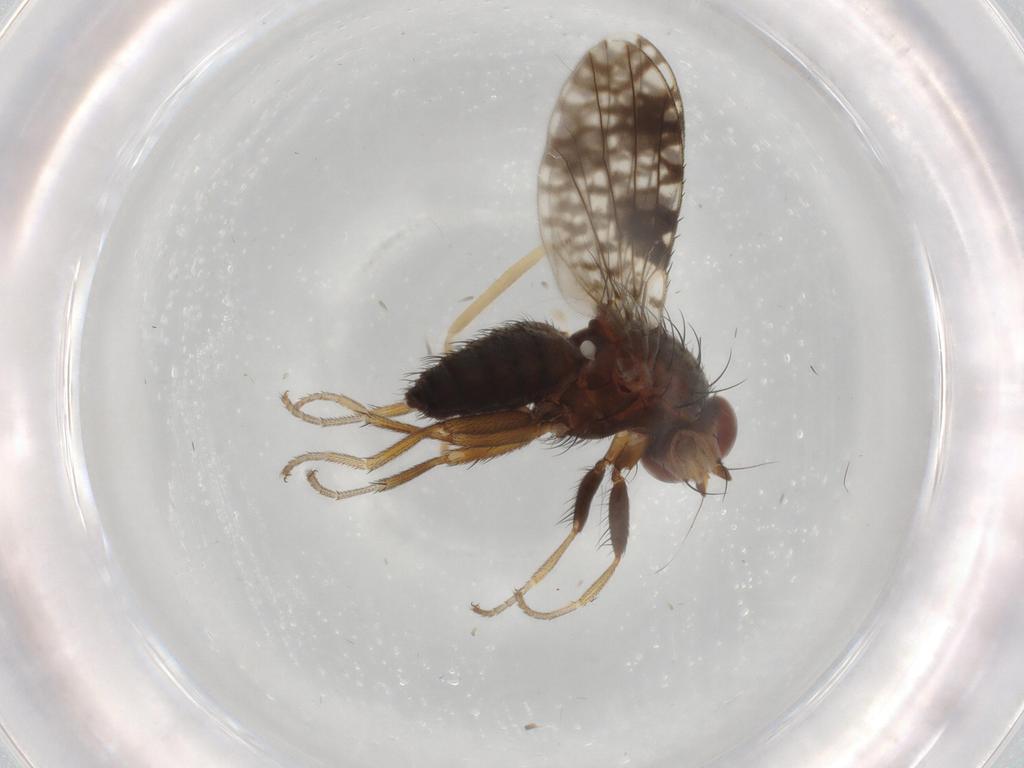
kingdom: Animalia
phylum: Arthropoda
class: Insecta
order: Diptera
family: Tephritidae
